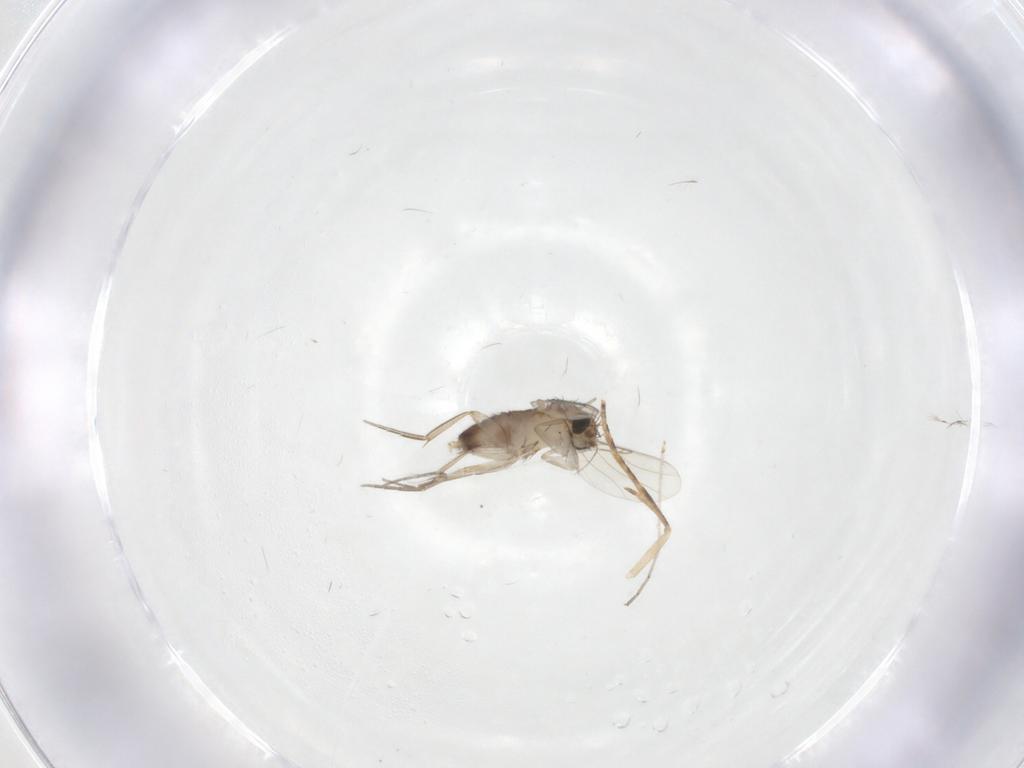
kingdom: Animalia
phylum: Arthropoda
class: Insecta
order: Diptera
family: Phoridae
